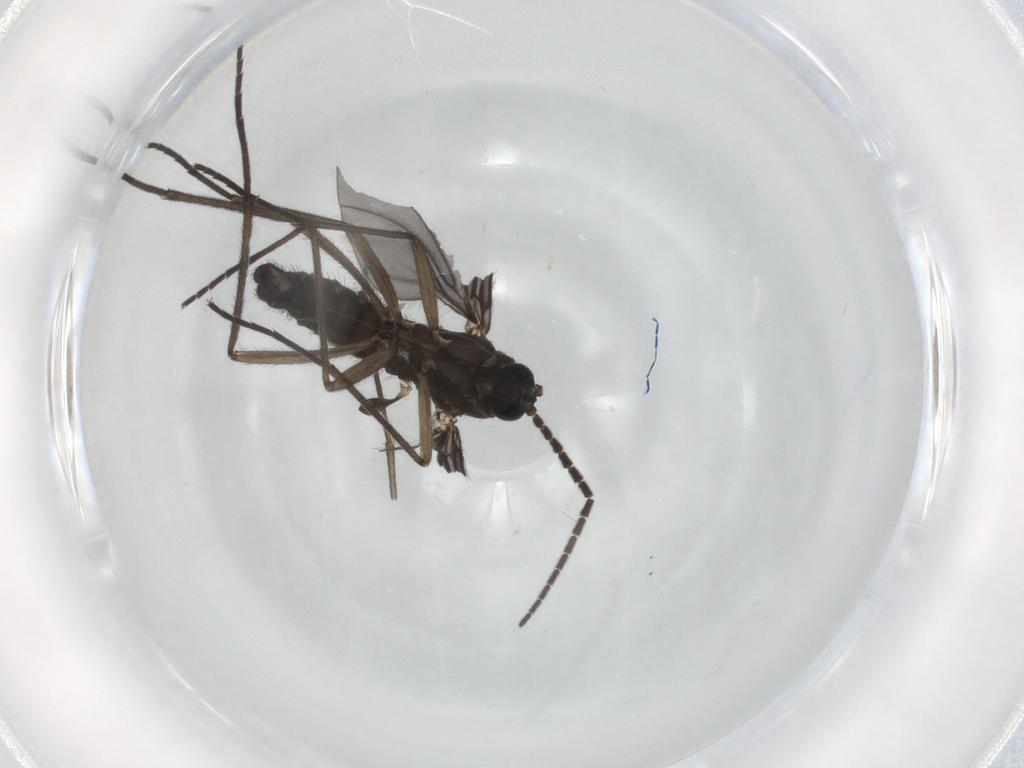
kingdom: Animalia
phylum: Arthropoda
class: Insecta
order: Diptera
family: Sciaridae
